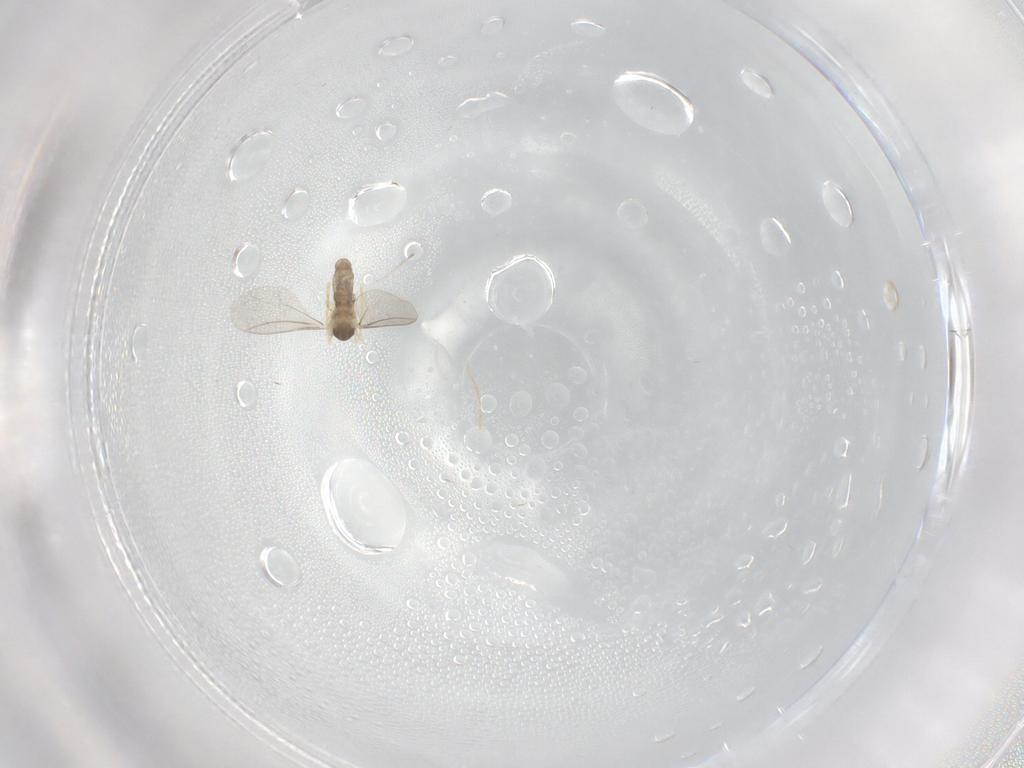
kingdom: Animalia
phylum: Arthropoda
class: Insecta
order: Diptera
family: Cecidomyiidae
